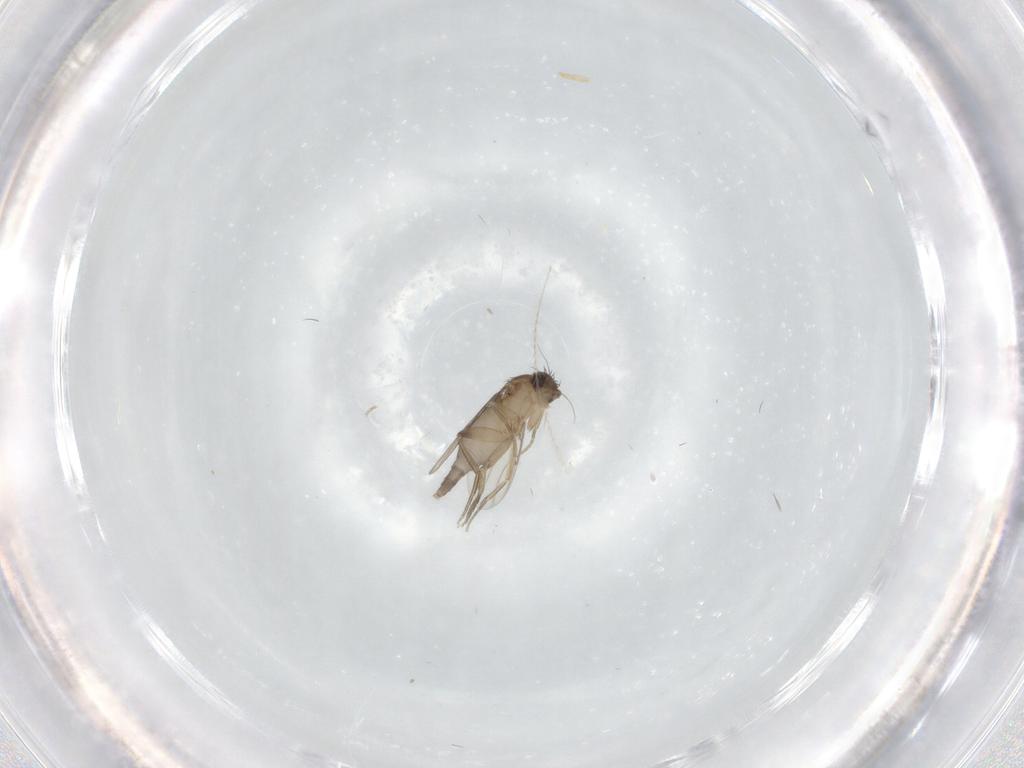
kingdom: Animalia
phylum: Arthropoda
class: Insecta
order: Diptera
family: Phoridae
